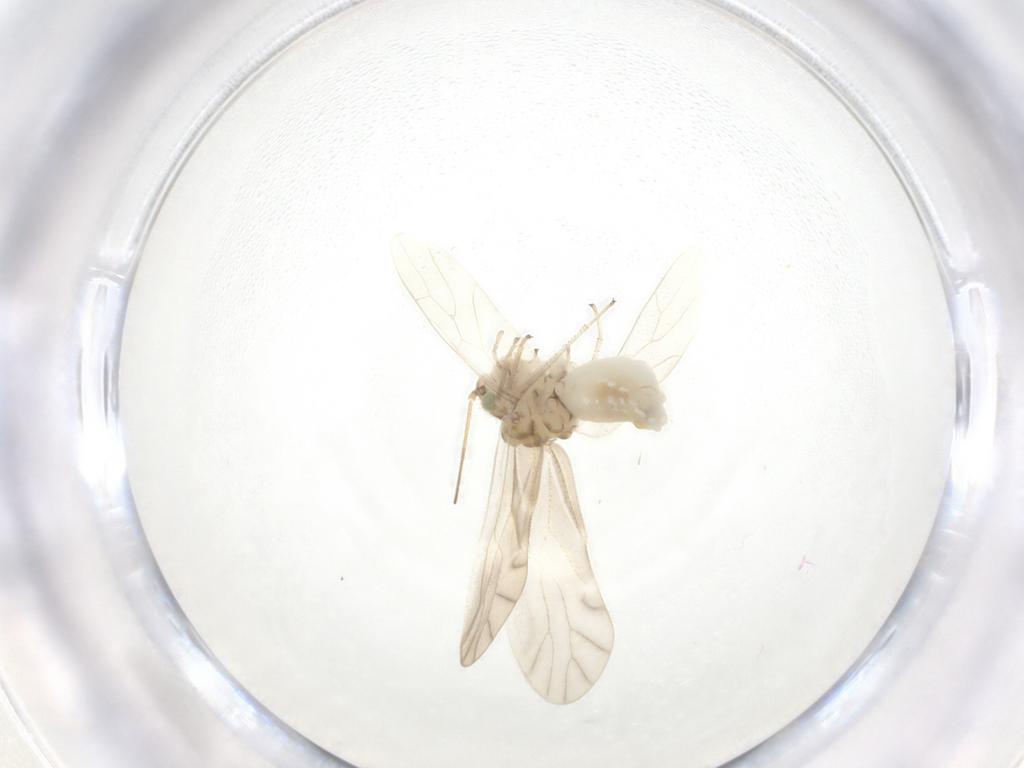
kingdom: Animalia
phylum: Arthropoda
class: Insecta
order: Psocodea
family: Caeciliusidae
